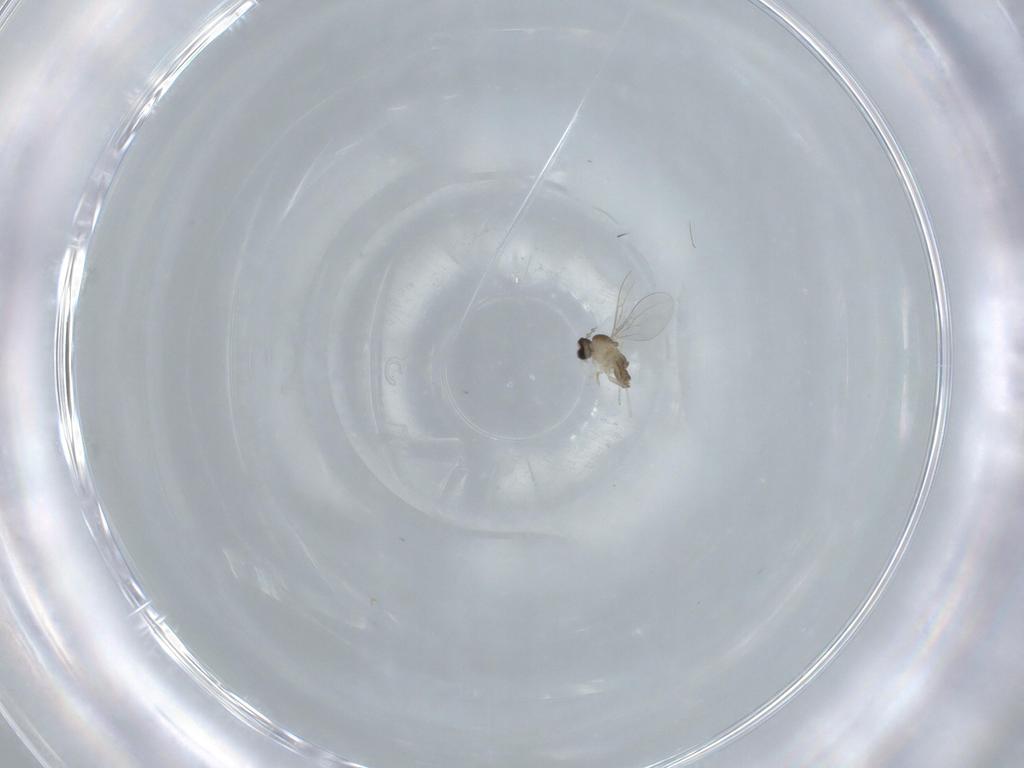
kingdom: Animalia
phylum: Arthropoda
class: Insecta
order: Diptera
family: Cecidomyiidae
